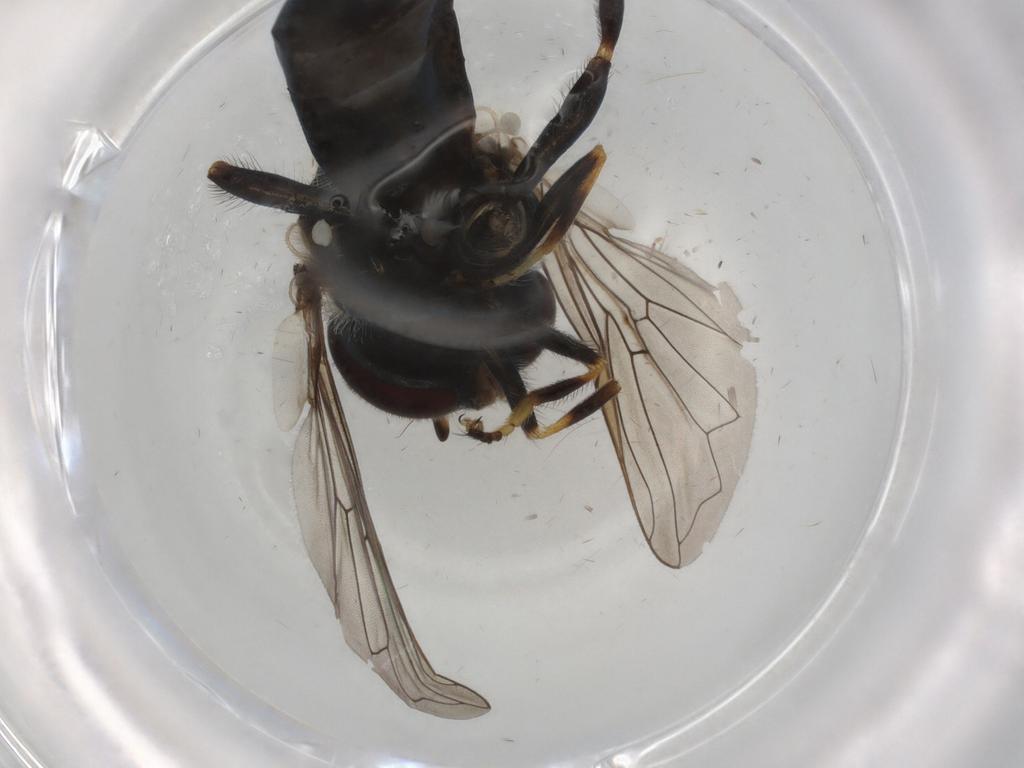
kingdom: Animalia
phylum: Arthropoda
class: Insecta
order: Diptera
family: Syrphidae
